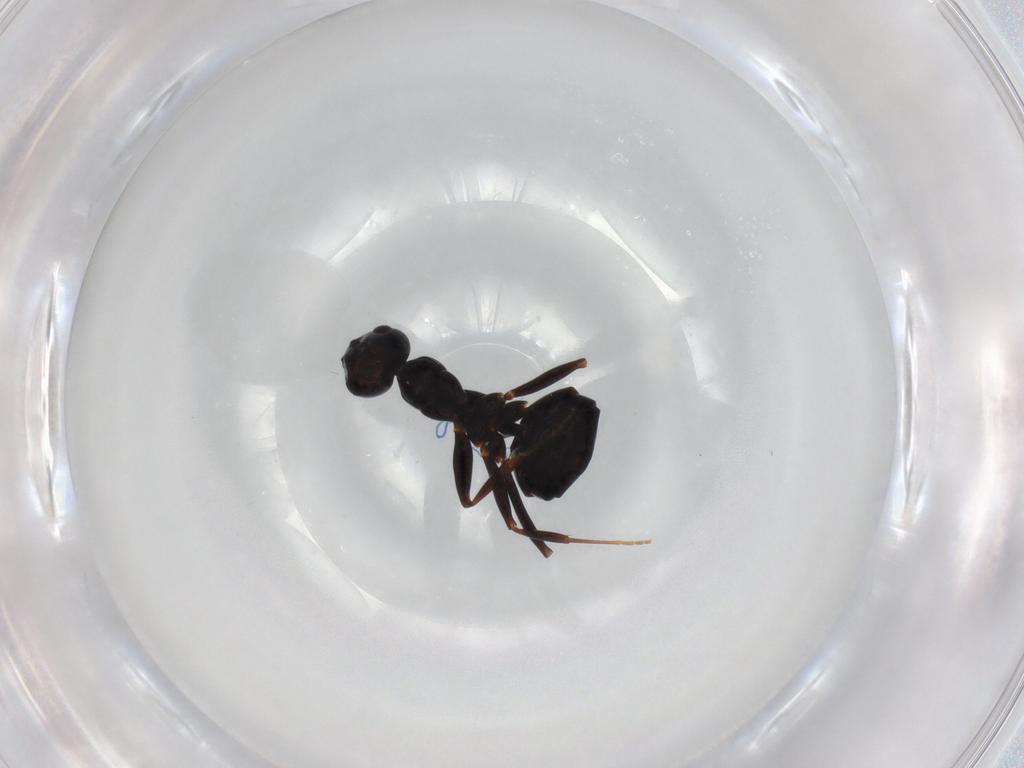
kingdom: Animalia
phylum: Arthropoda
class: Insecta
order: Hymenoptera
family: Formicidae
